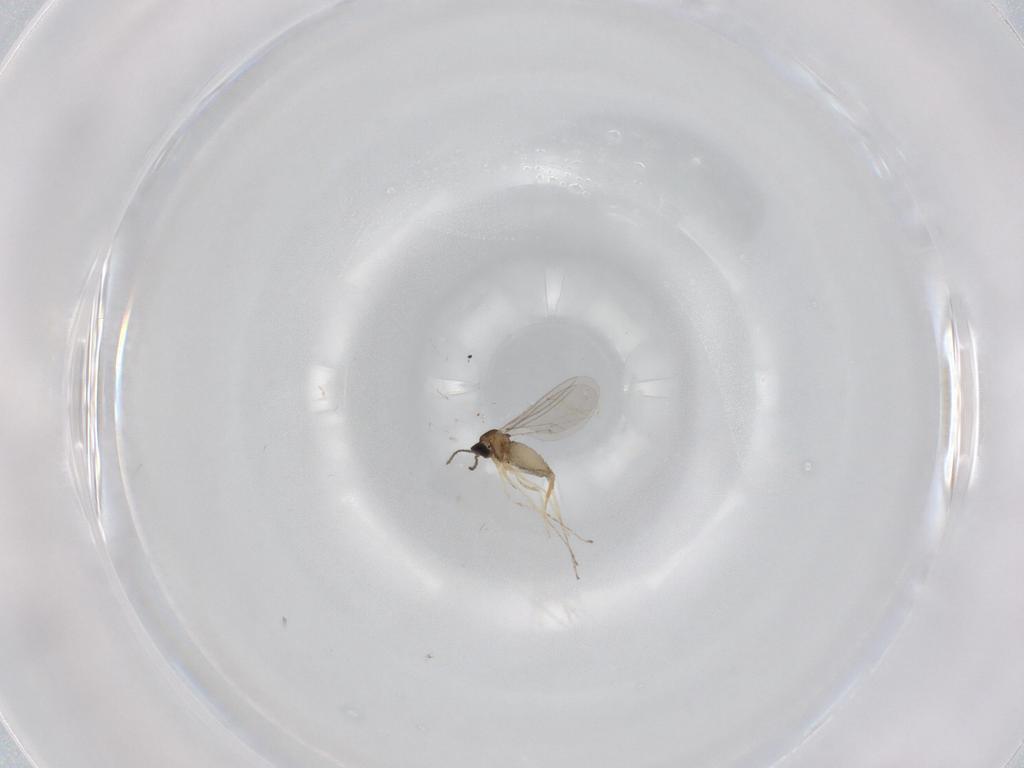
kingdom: Animalia
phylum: Arthropoda
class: Insecta
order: Diptera
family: Cecidomyiidae
